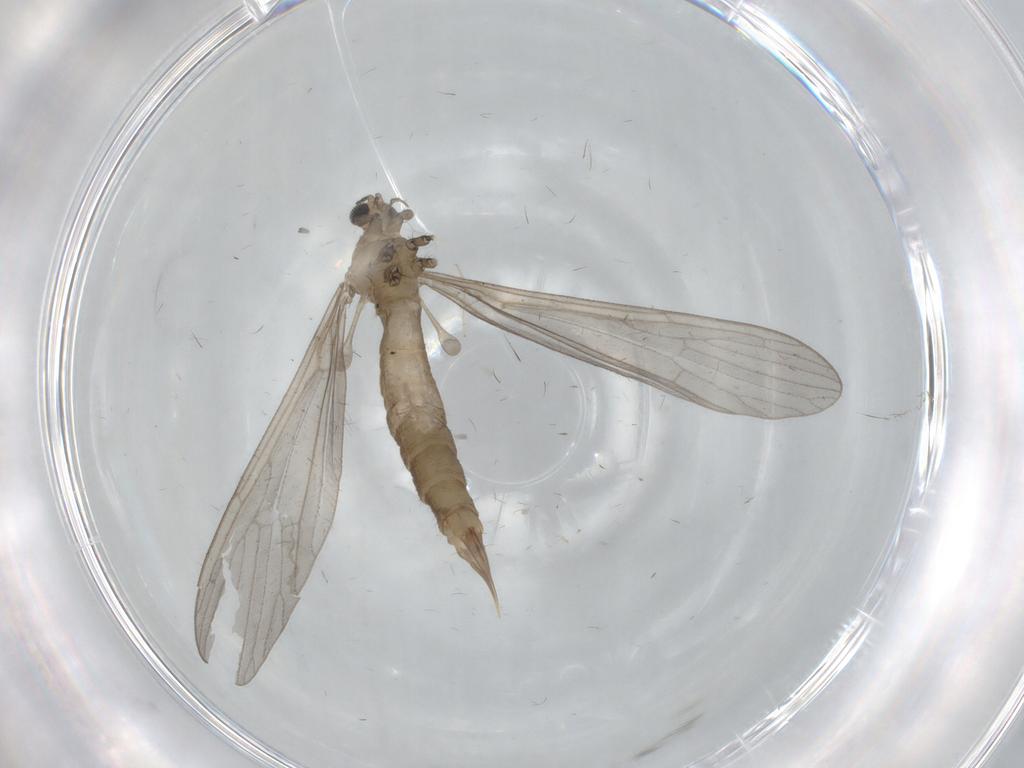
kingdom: Animalia
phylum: Arthropoda
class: Insecta
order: Diptera
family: Limoniidae
